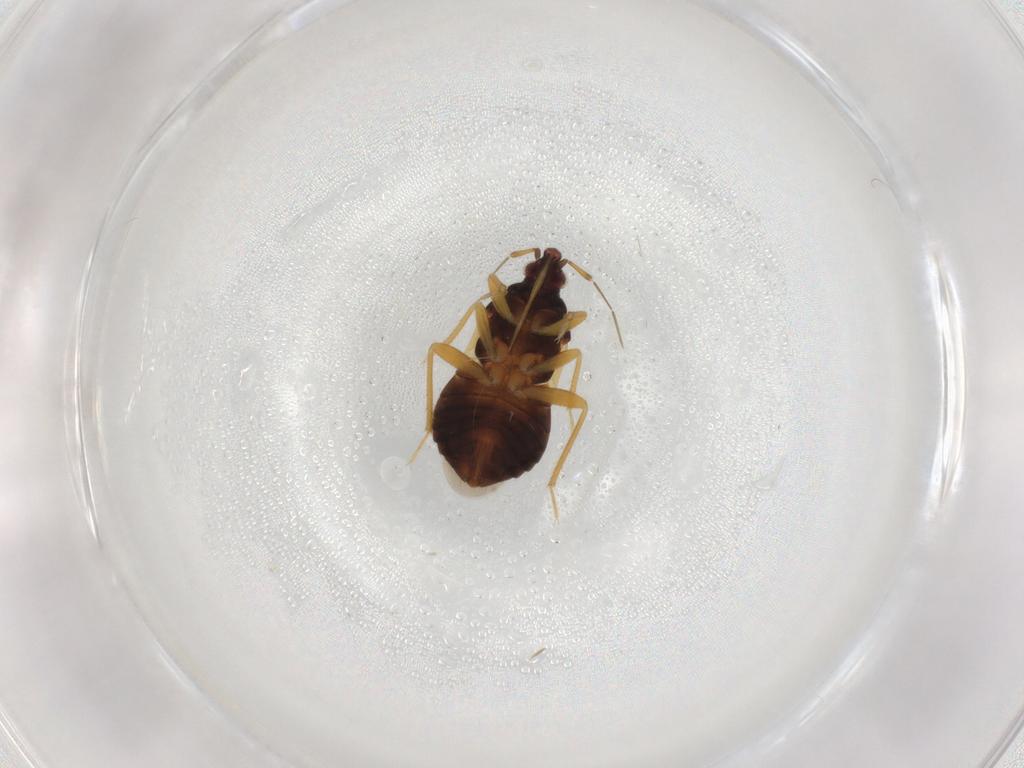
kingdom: Animalia
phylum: Arthropoda
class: Insecta
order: Hemiptera
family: Anthocoridae
